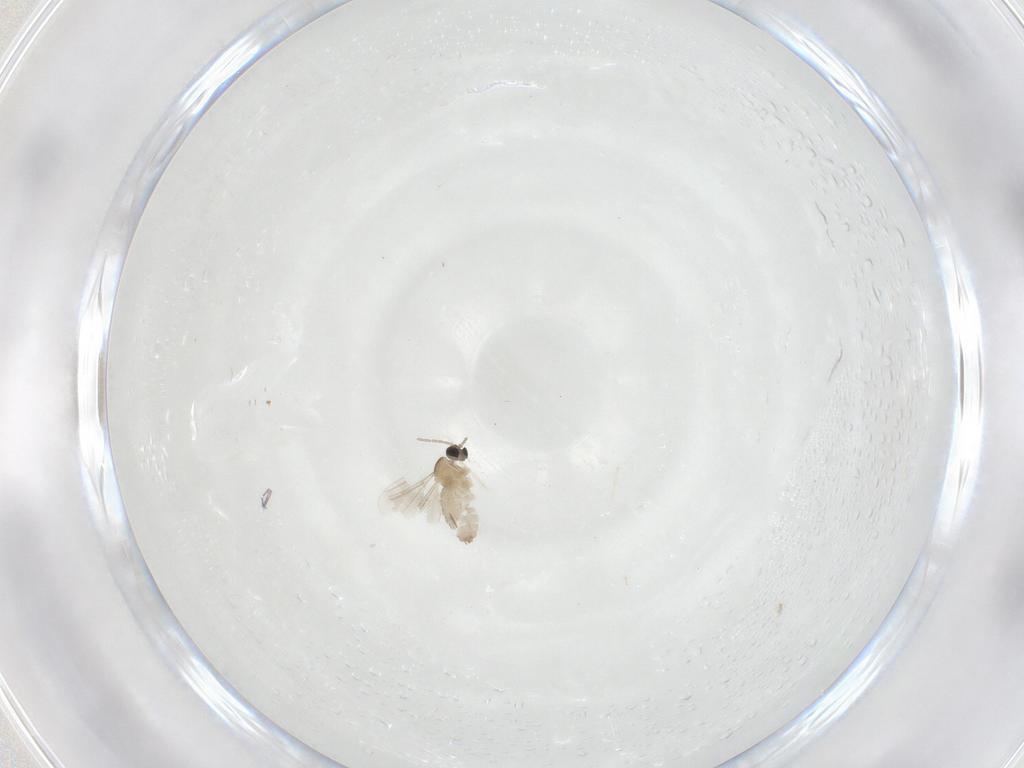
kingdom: Animalia
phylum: Arthropoda
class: Insecta
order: Diptera
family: Cecidomyiidae
